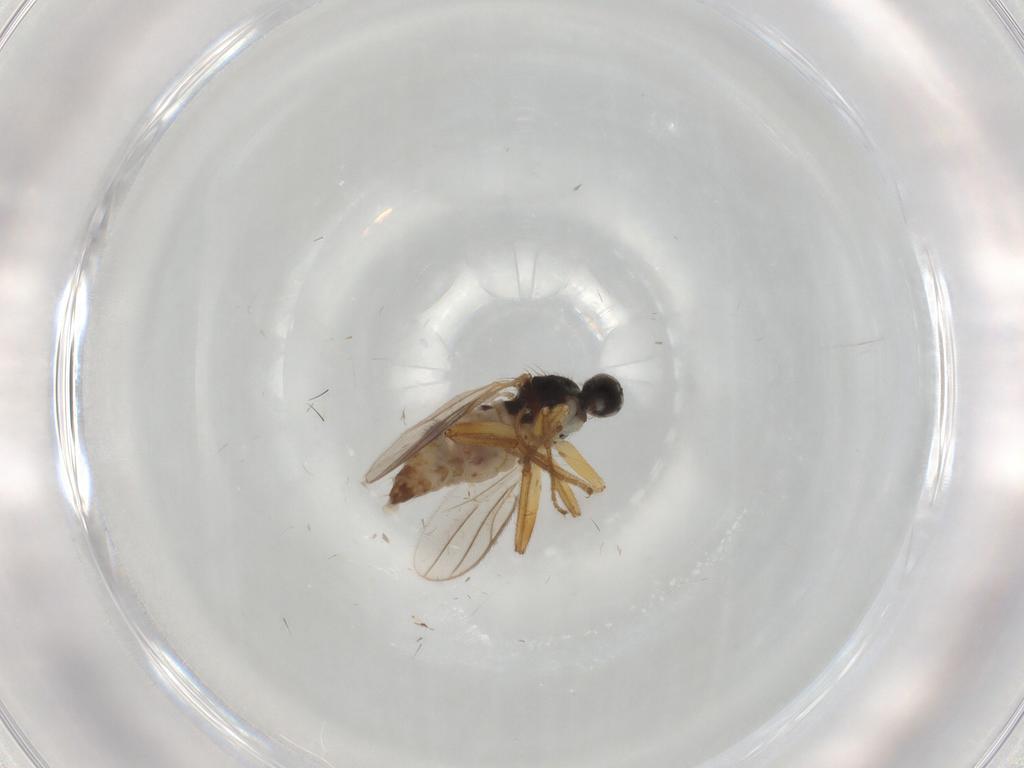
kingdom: Animalia
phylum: Arthropoda
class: Insecta
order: Diptera
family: Hybotidae
